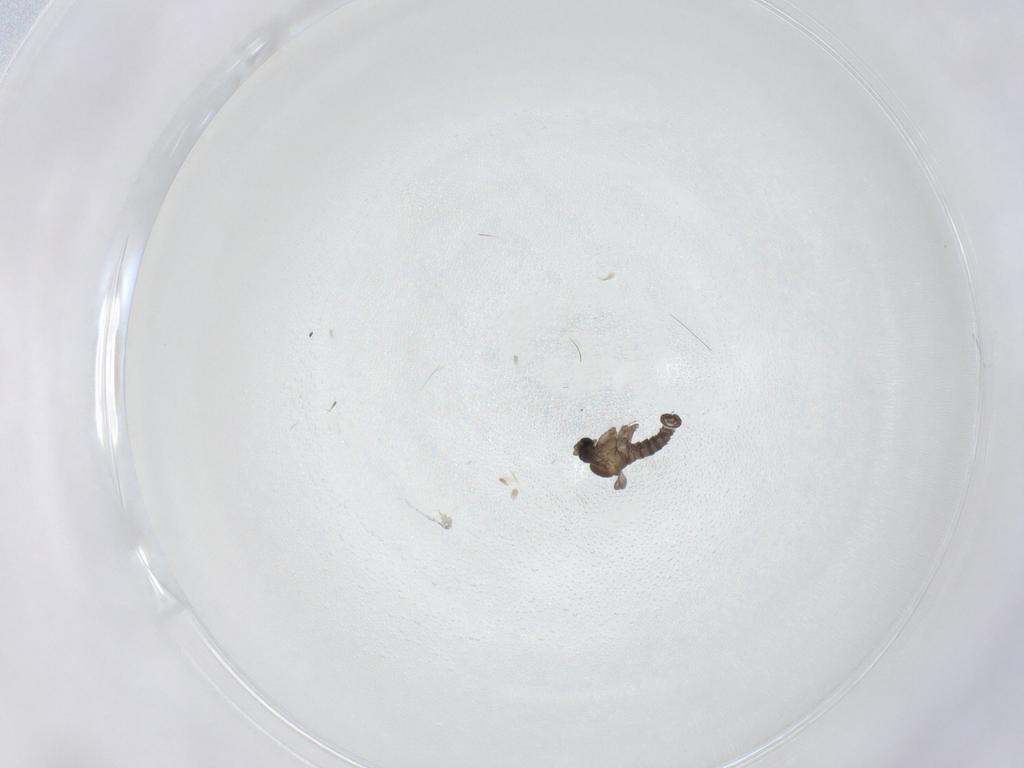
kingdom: Animalia
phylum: Arthropoda
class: Insecta
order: Diptera
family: Sciaridae
